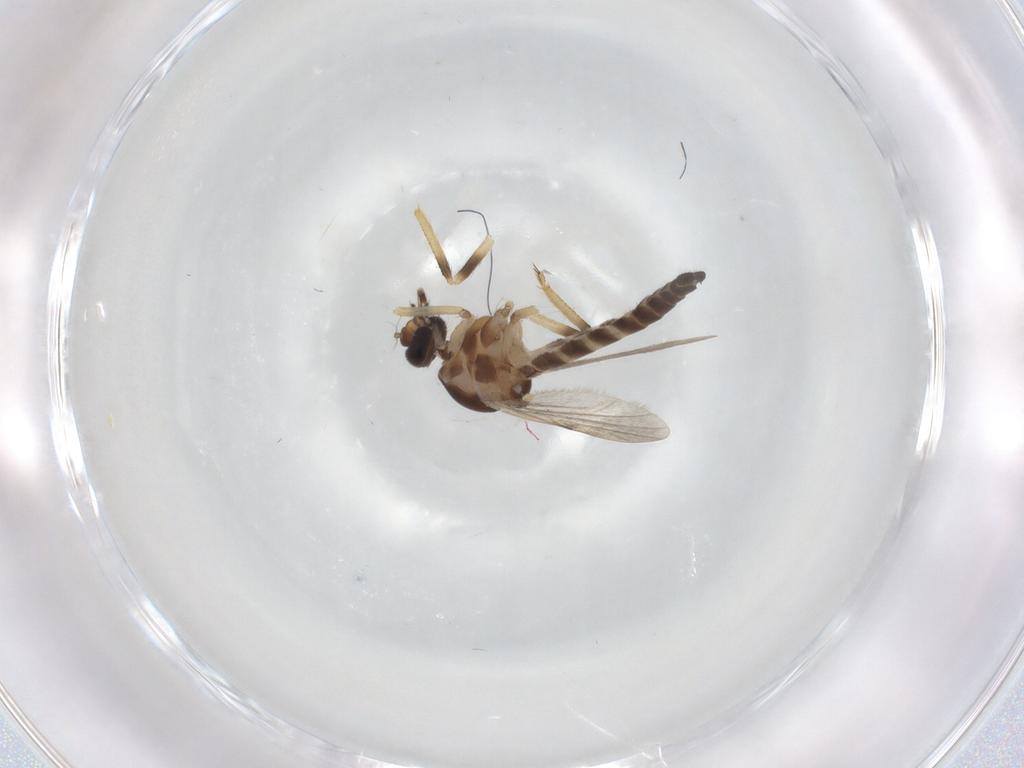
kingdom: Animalia
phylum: Arthropoda
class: Insecta
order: Diptera
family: Ceratopogonidae
